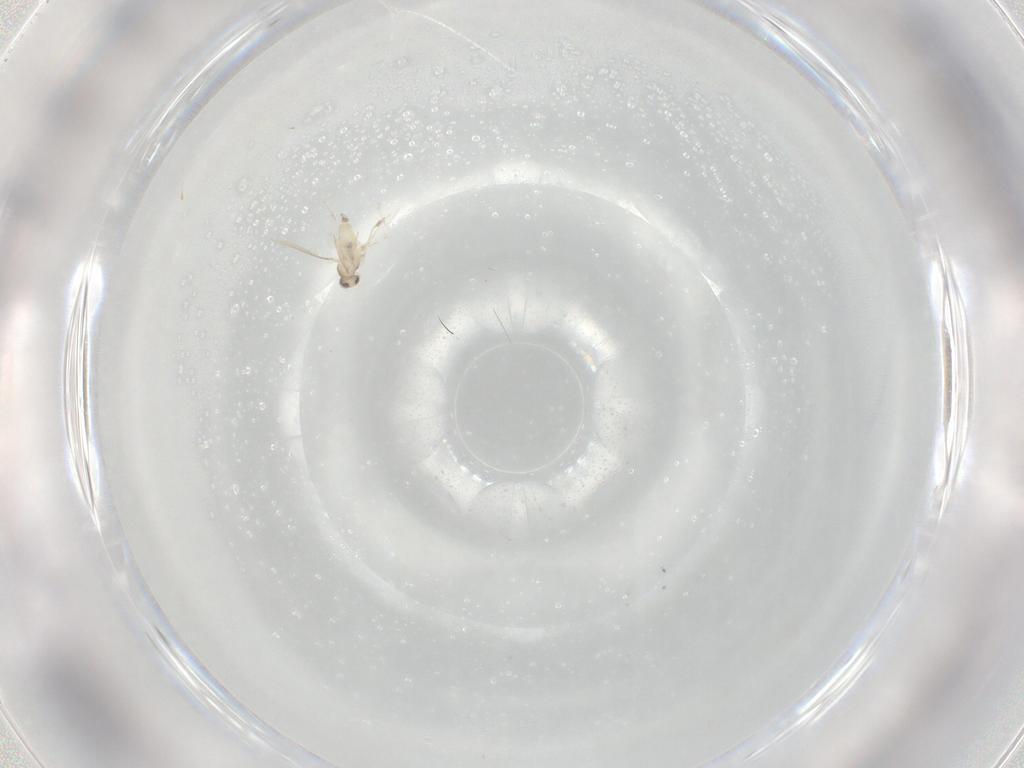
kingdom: Animalia
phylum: Arthropoda
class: Insecta
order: Diptera
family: Cecidomyiidae
